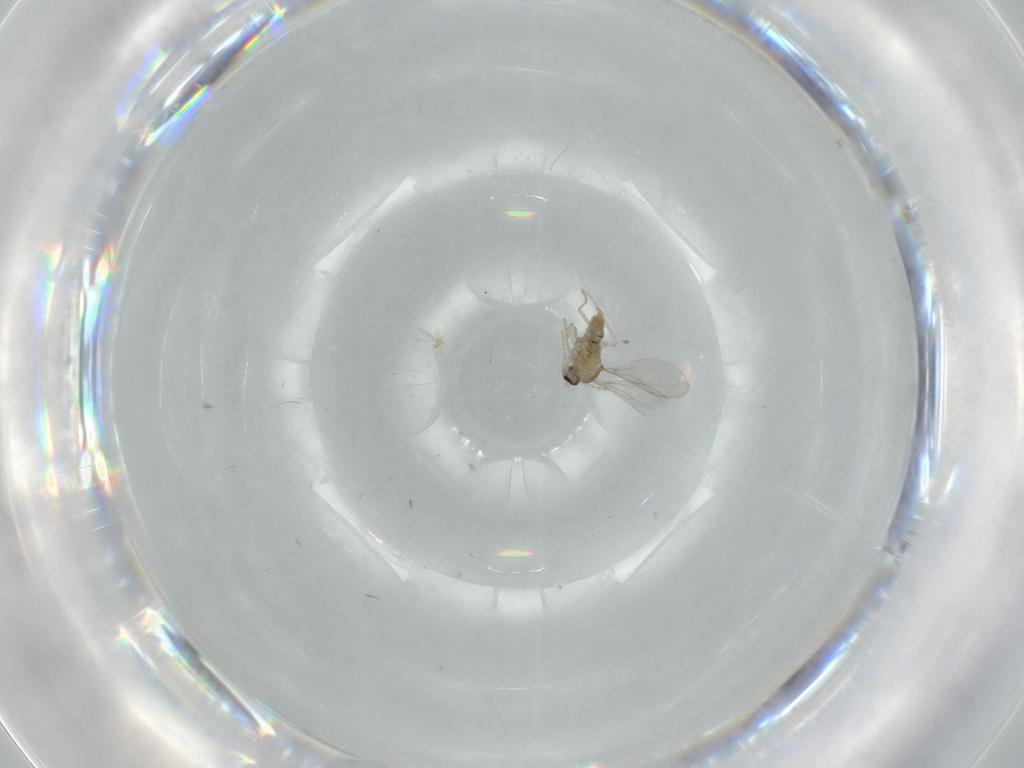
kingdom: Animalia
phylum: Arthropoda
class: Insecta
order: Diptera
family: Cecidomyiidae
